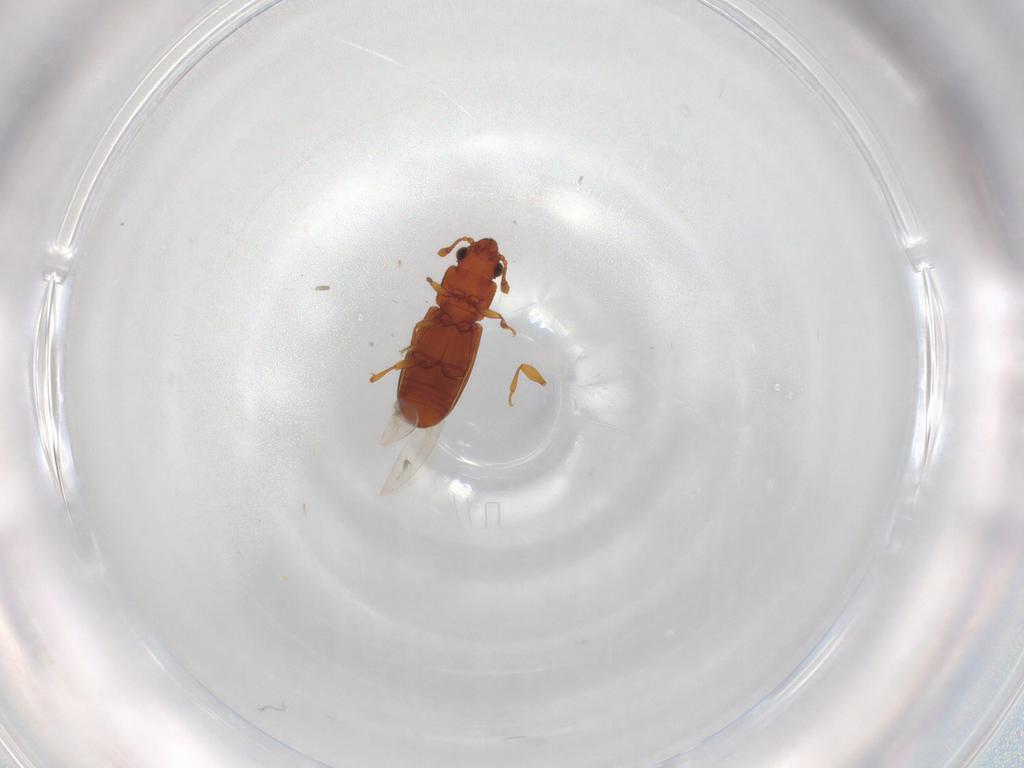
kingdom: Animalia
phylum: Arthropoda
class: Insecta
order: Coleoptera
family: Monotomidae
